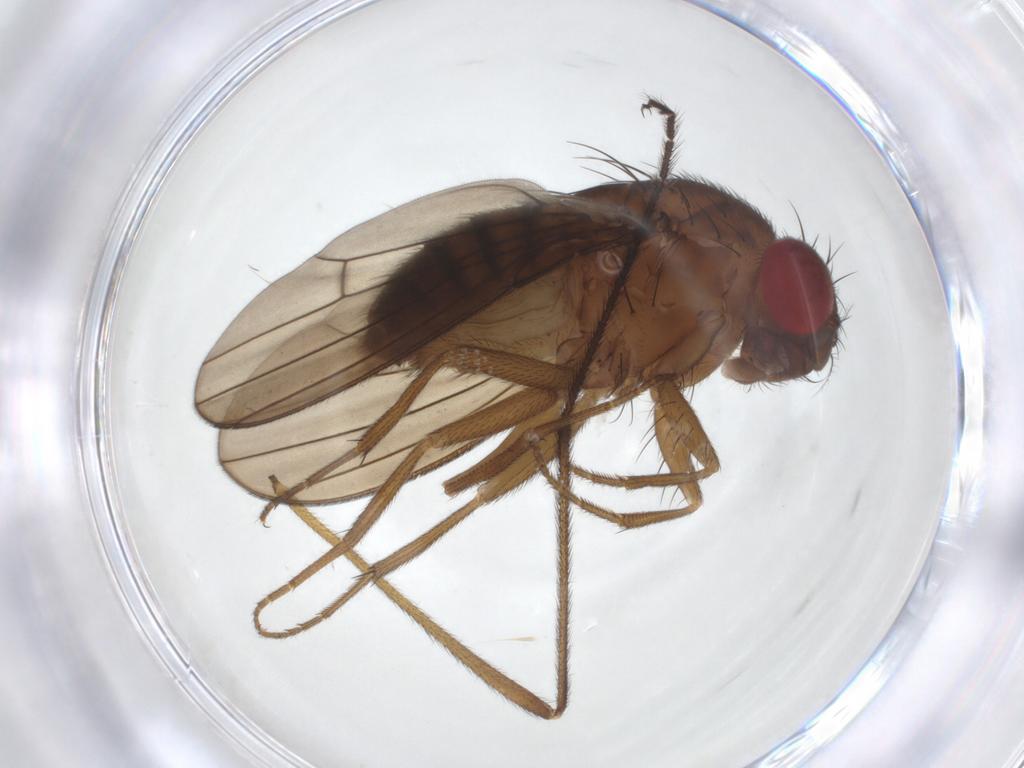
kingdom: Animalia
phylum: Arthropoda
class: Insecta
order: Diptera
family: Drosophilidae
